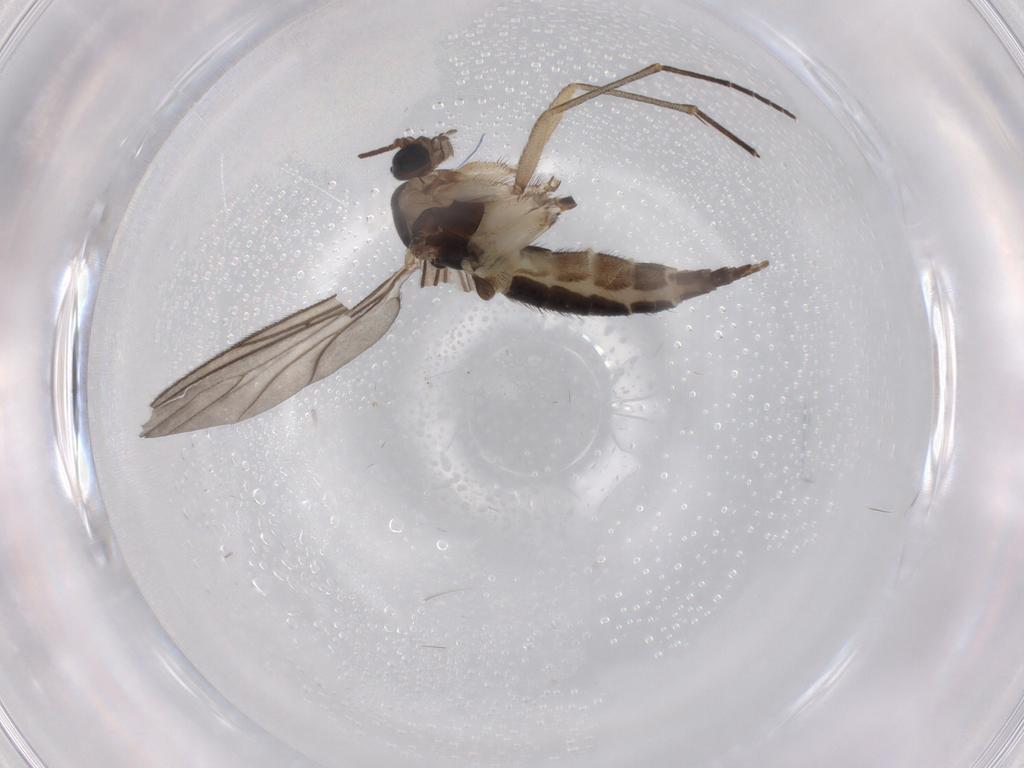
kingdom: Animalia
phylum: Arthropoda
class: Insecta
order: Diptera
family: Sciaridae
